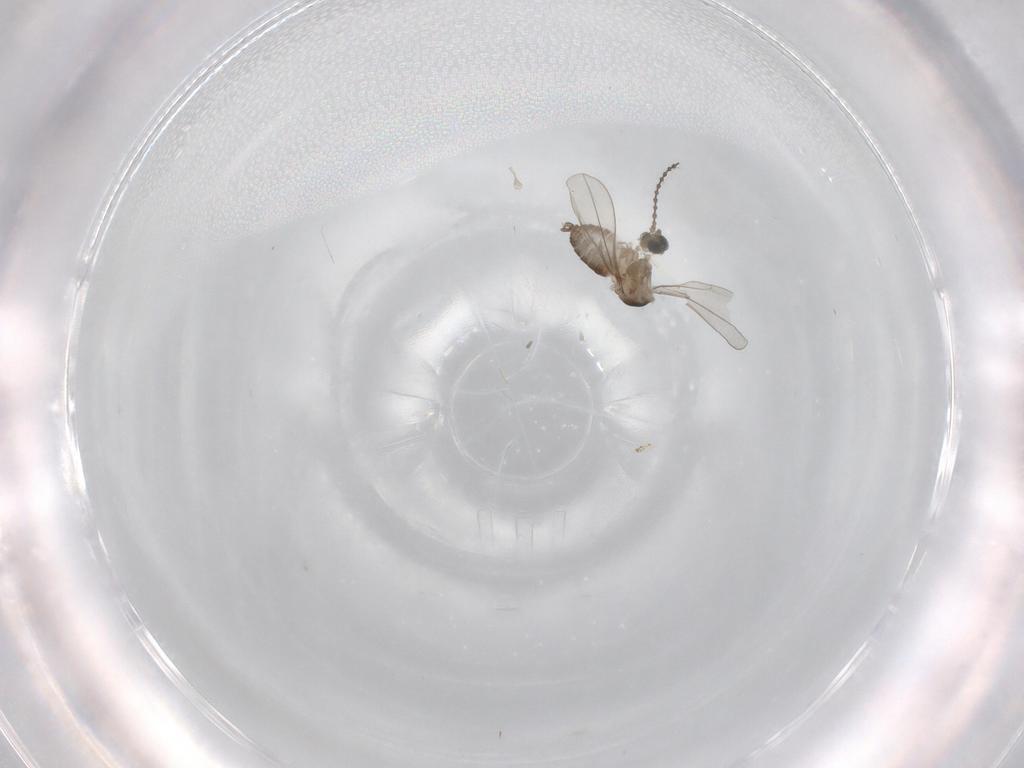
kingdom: Animalia
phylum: Arthropoda
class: Insecta
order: Diptera
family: Cecidomyiidae
